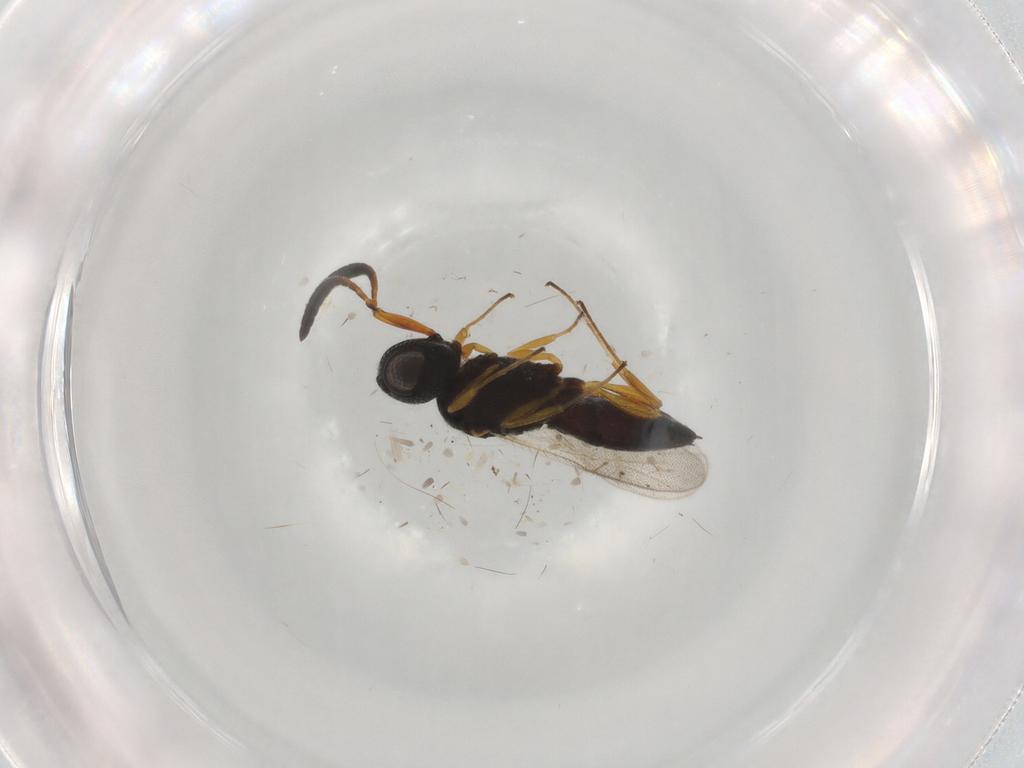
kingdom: Animalia
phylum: Arthropoda
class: Insecta
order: Hymenoptera
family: Scelionidae
